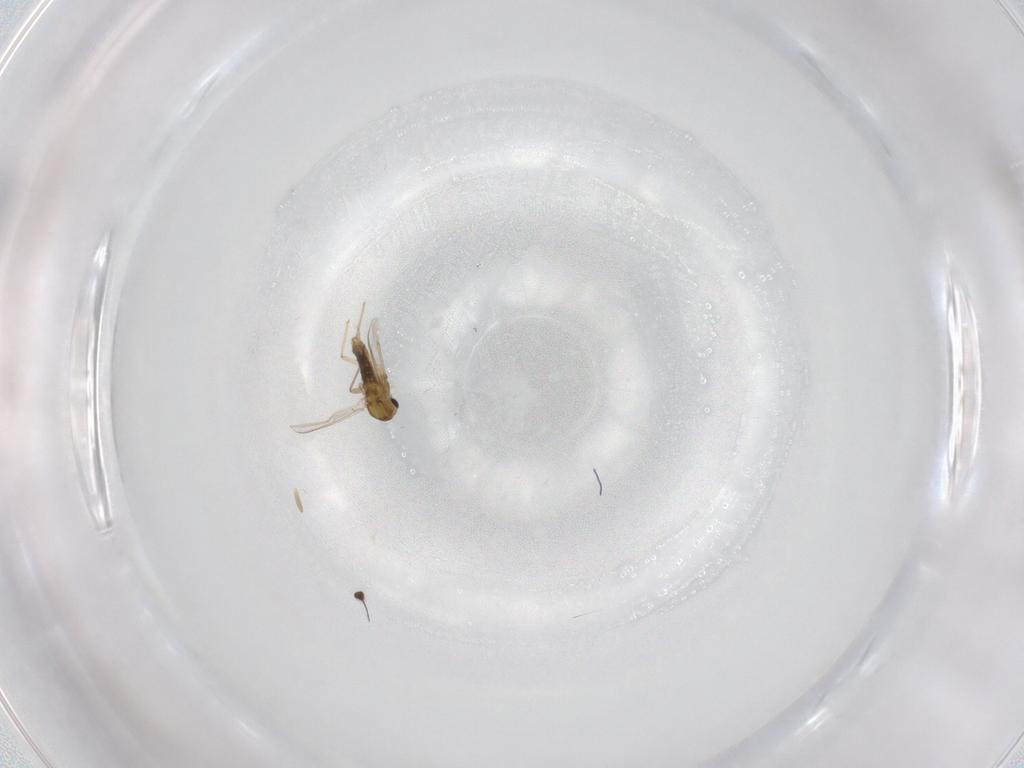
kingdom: Animalia
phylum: Arthropoda
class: Insecta
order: Diptera
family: Chironomidae
